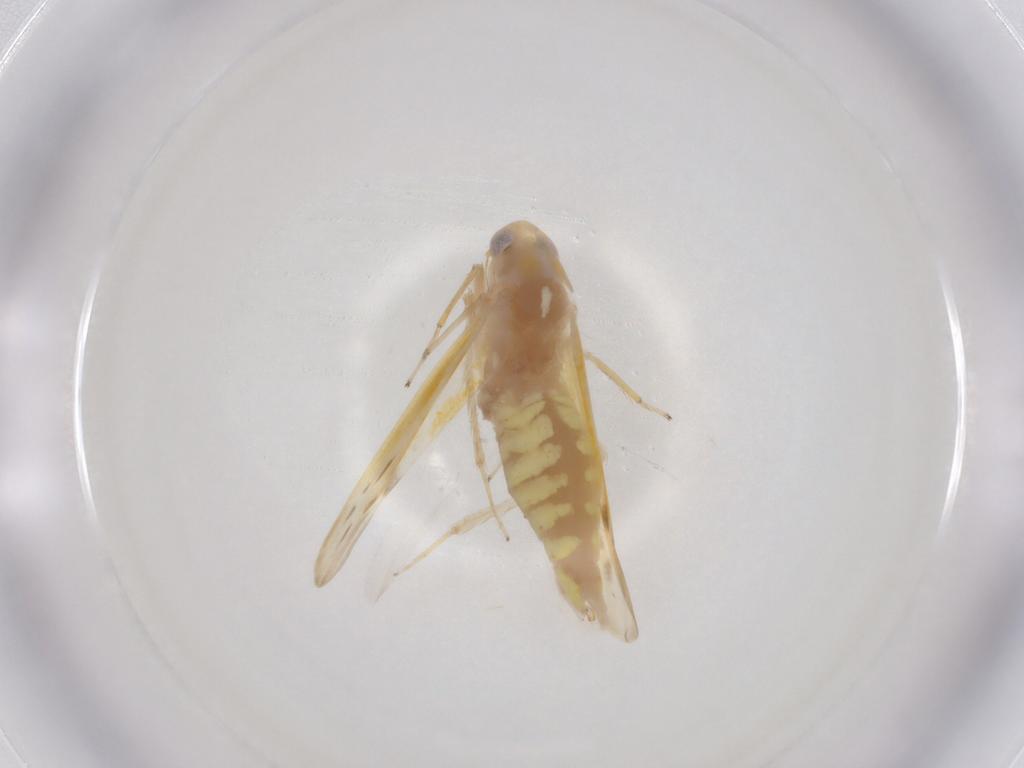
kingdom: Animalia
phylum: Arthropoda
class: Insecta
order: Hemiptera
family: Cicadellidae
